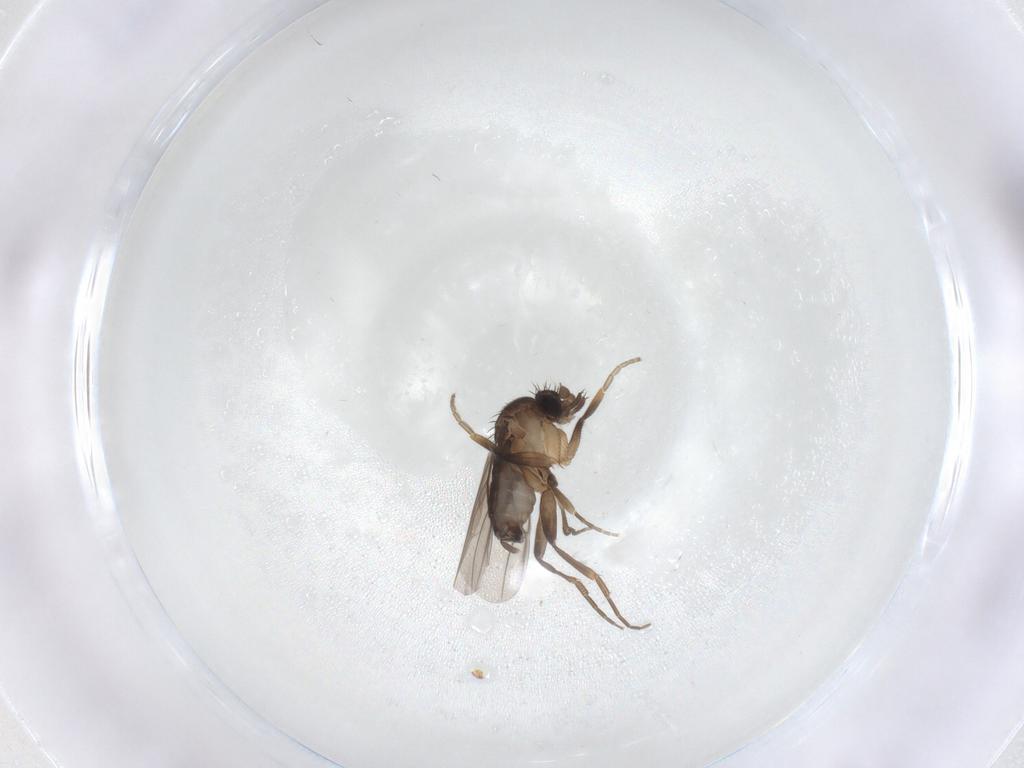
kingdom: Animalia
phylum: Arthropoda
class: Insecta
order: Diptera
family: Phoridae
